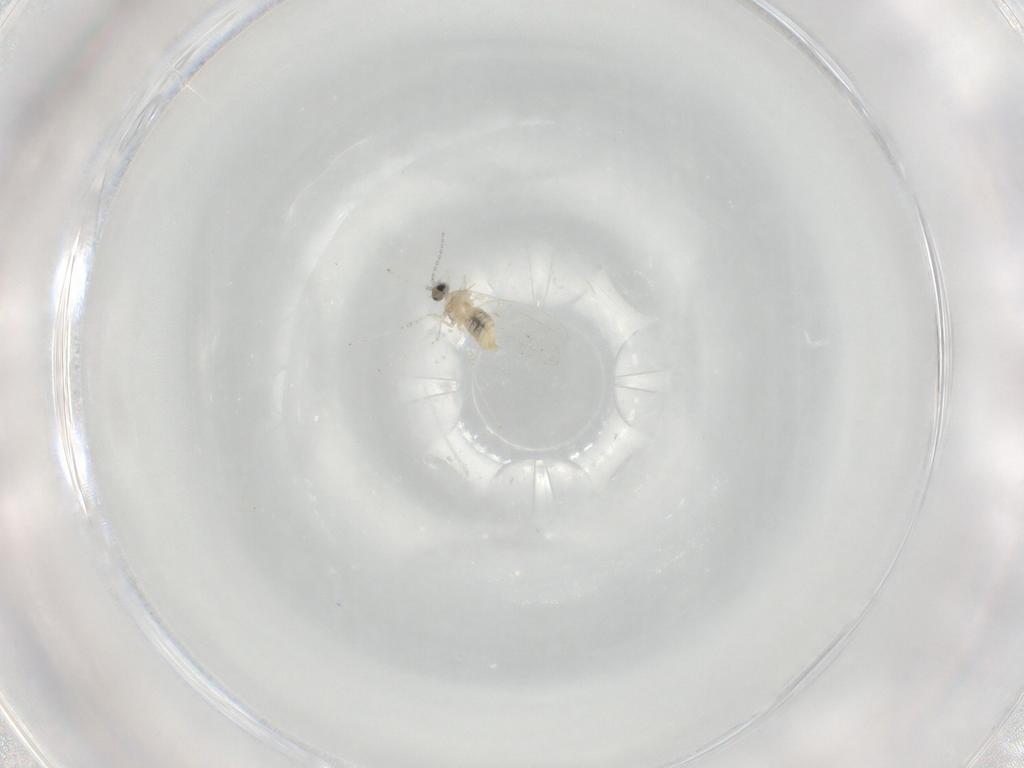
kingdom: Animalia
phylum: Arthropoda
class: Insecta
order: Diptera
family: Cecidomyiidae
